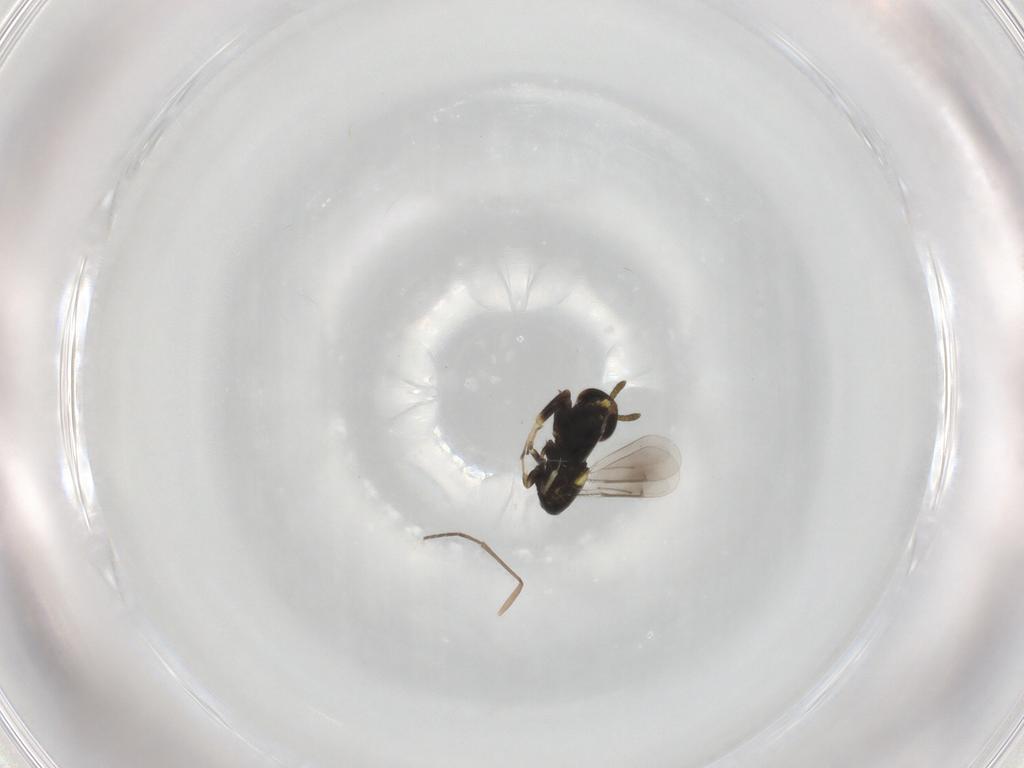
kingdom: Animalia
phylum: Arthropoda
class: Insecta
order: Hymenoptera
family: Aphelinidae
